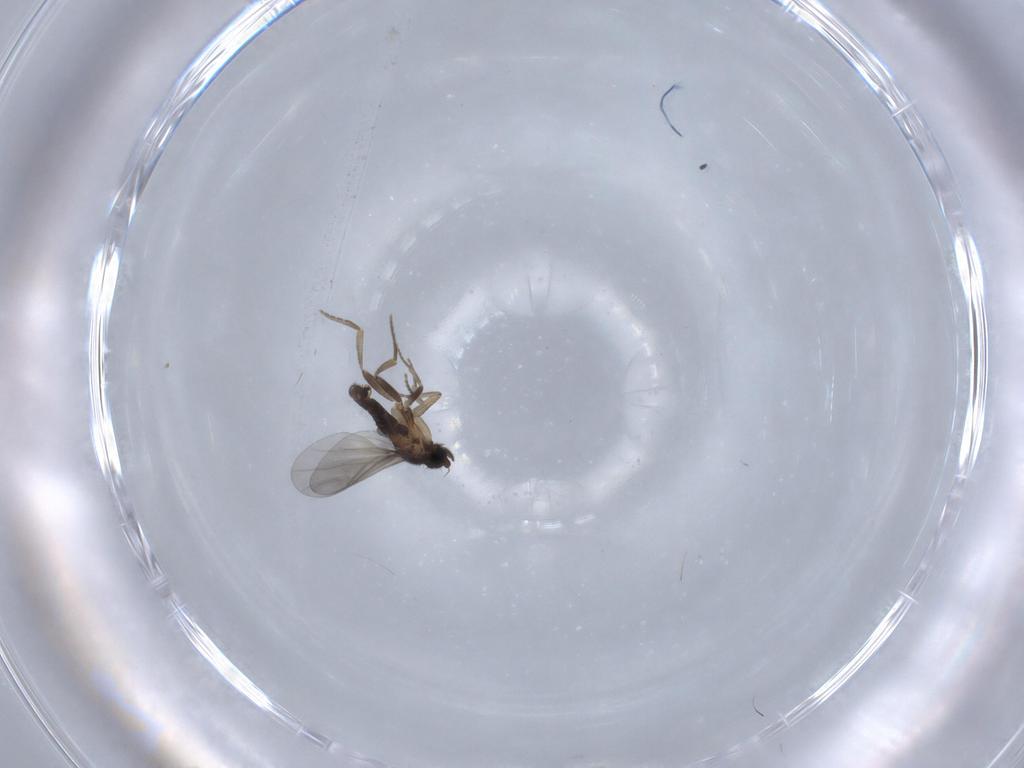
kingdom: Animalia
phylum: Arthropoda
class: Insecta
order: Diptera
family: Cecidomyiidae
